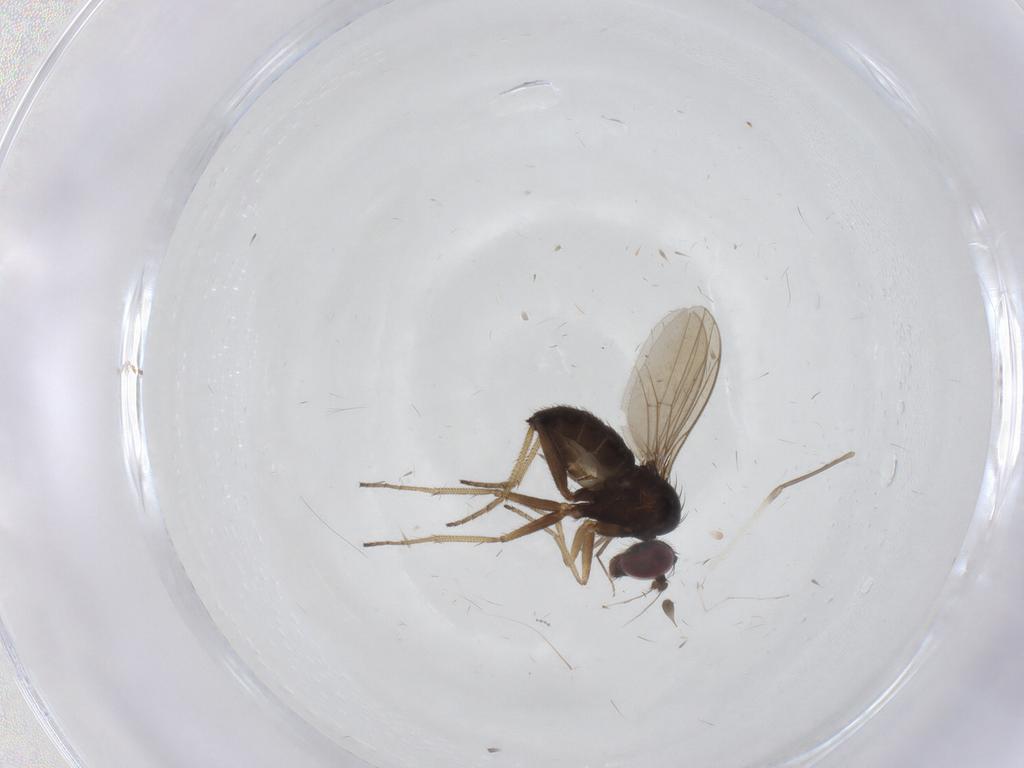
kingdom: Animalia
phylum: Arthropoda
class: Insecta
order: Diptera
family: Dolichopodidae
